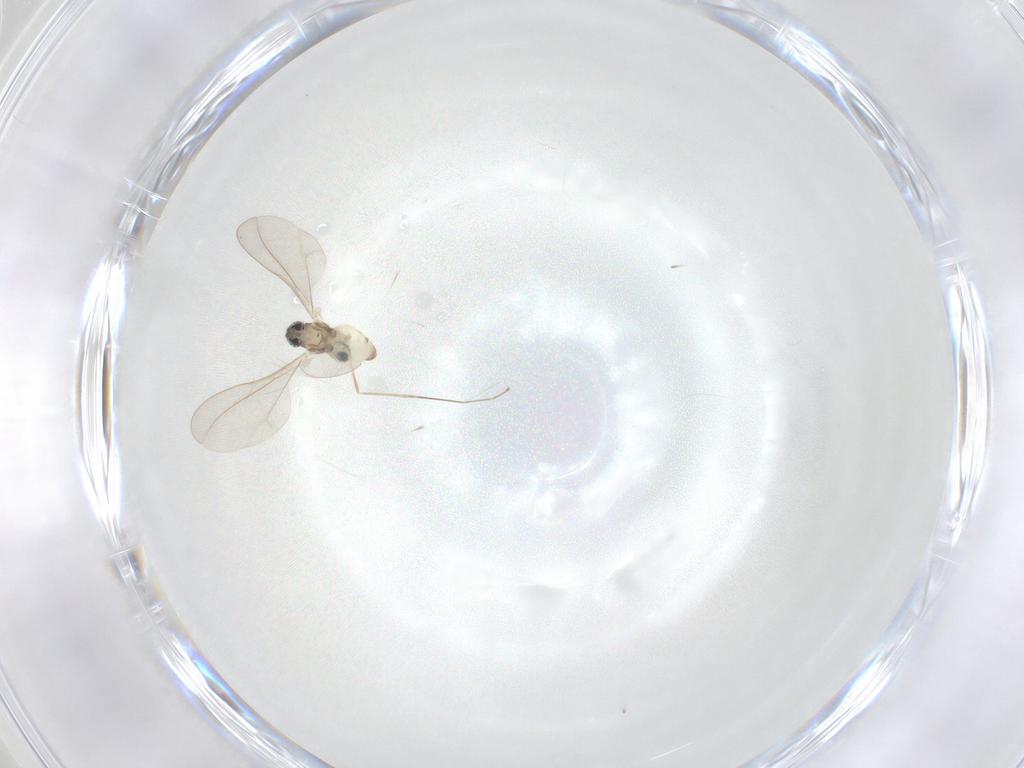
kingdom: Animalia
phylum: Arthropoda
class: Insecta
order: Diptera
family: Cecidomyiidae
